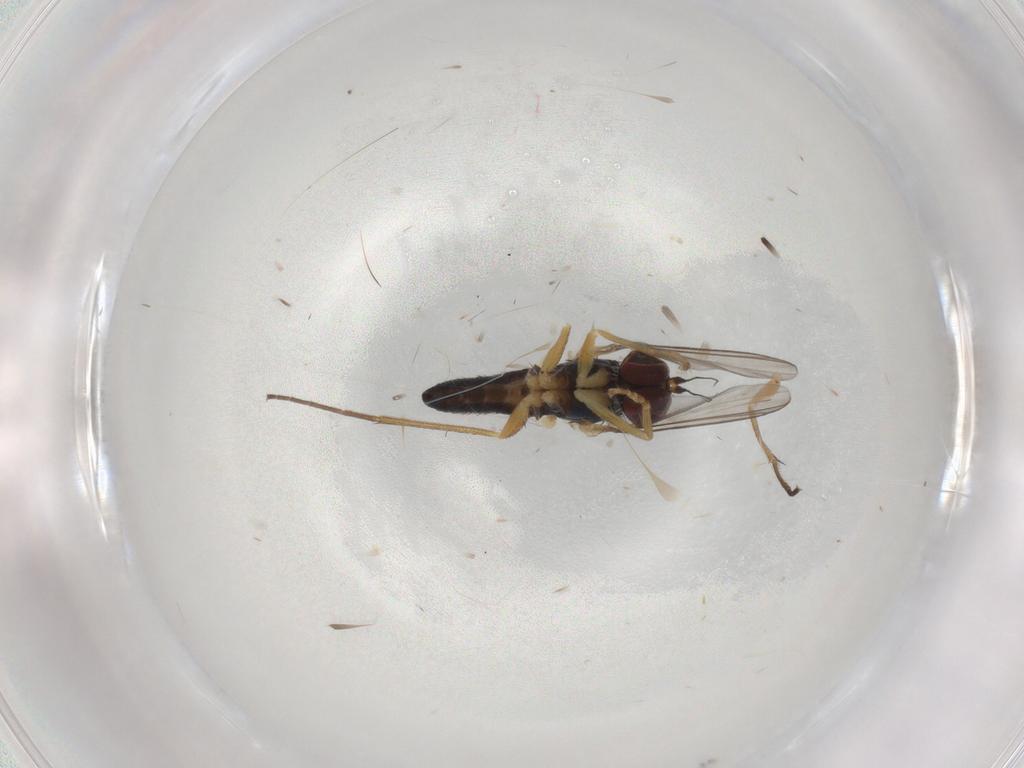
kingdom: Animalia
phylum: Arthropoda
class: Insecta
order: Diptera
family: Dolichopodidae
